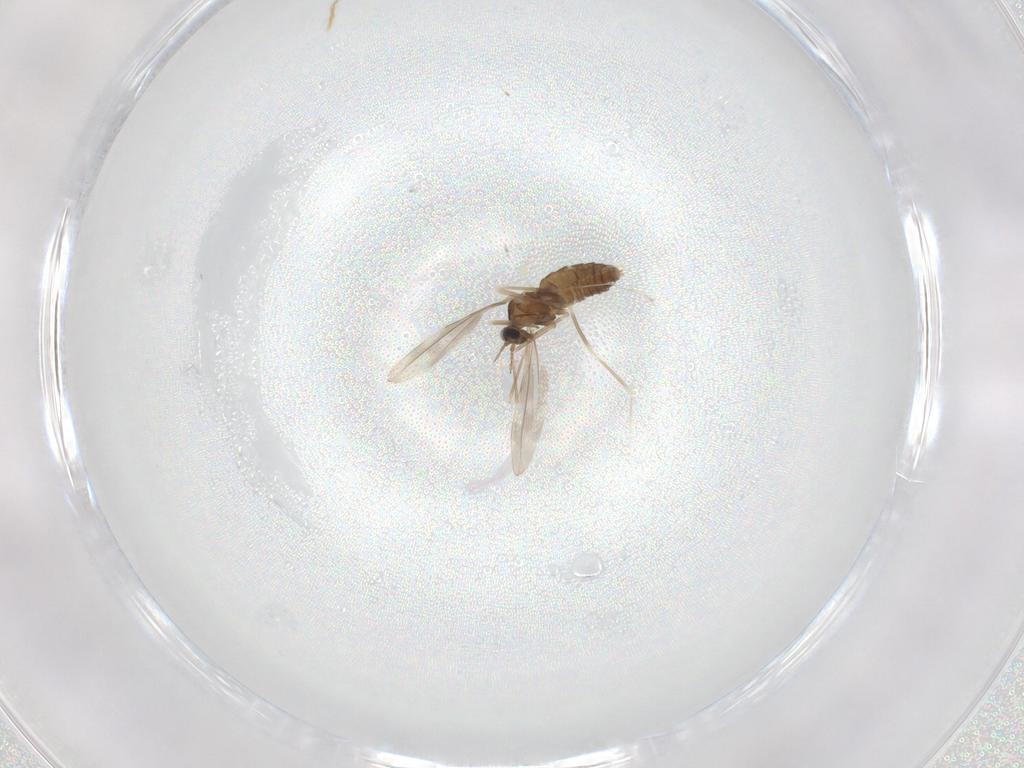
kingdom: Animalia
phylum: Arthropoda
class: Insecta
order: Diptera
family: Cecidomyiidae
